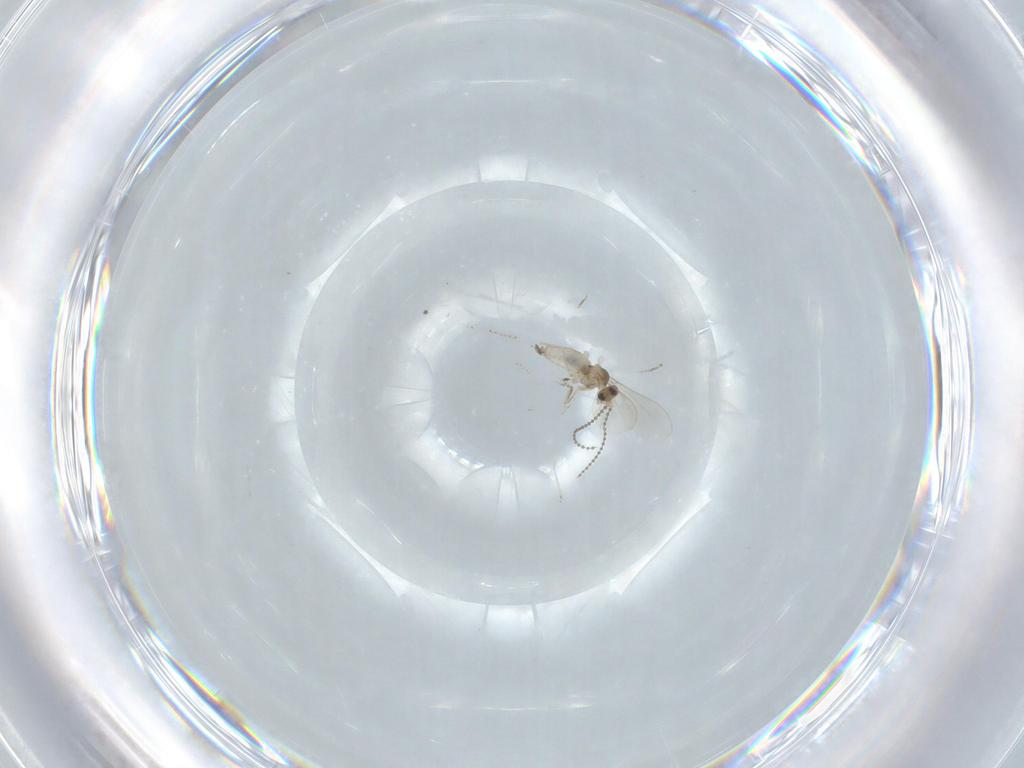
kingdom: Animalia
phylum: Arthropoda
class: Insecta
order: Diptera
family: Cecidomyiidae
